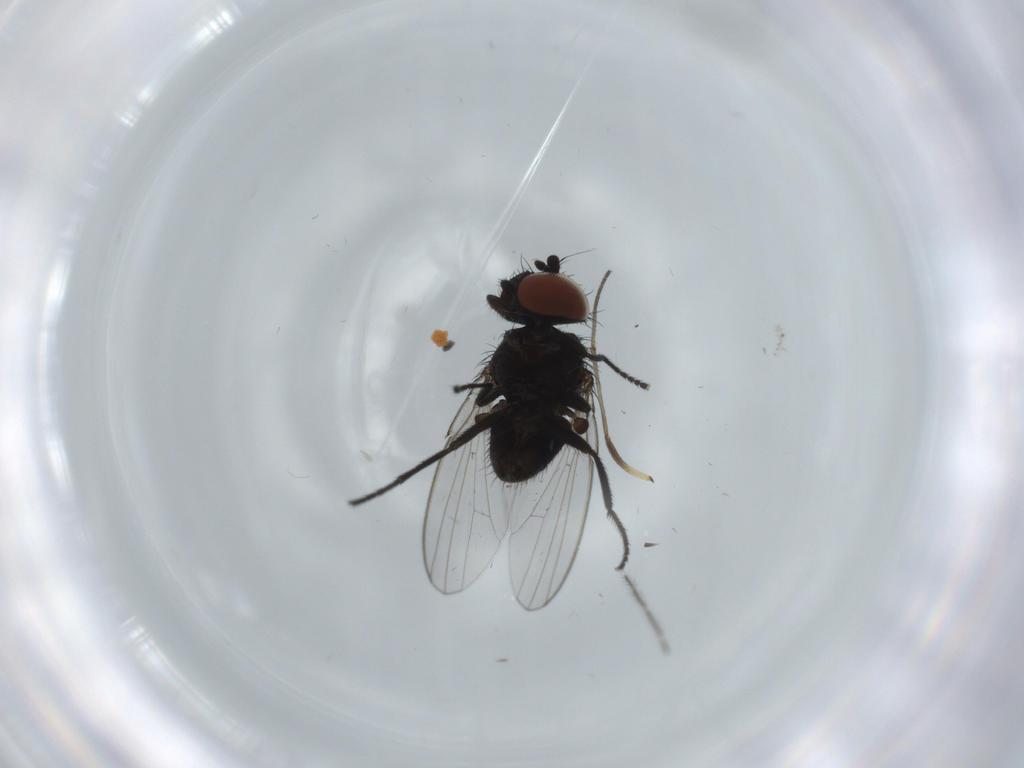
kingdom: Animalia
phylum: Arthropoda
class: Insecta
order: Diptera
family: Milichiidae
